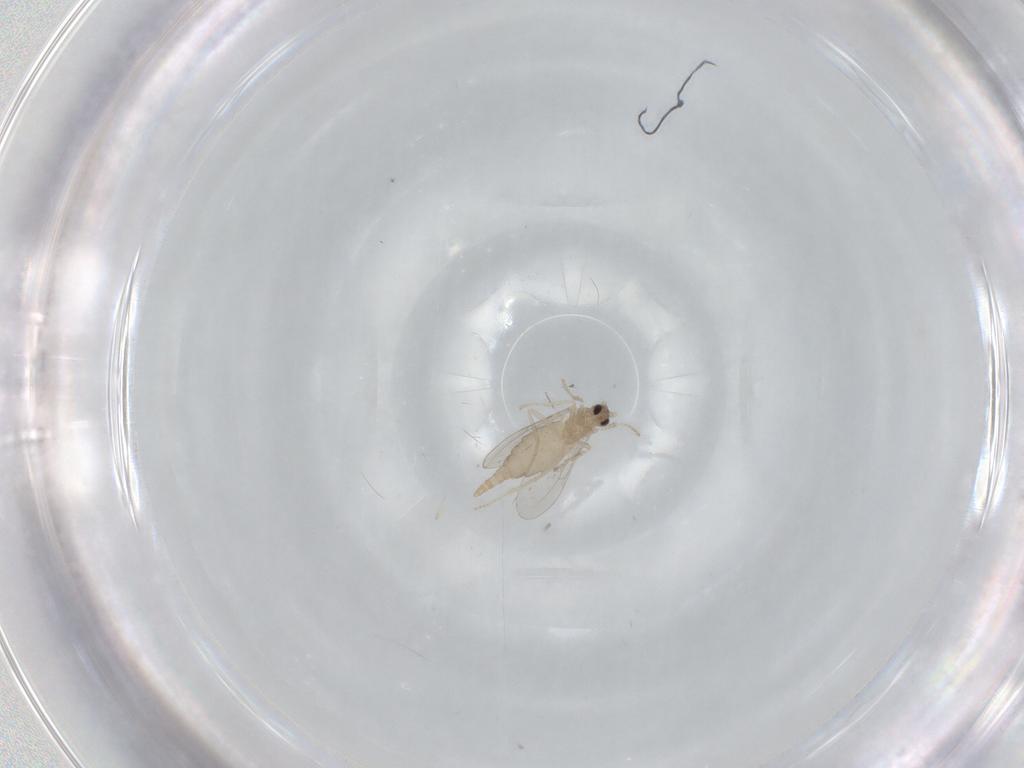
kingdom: Animalia
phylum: Arthropoda
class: Insecta
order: Diptera
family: Cecidomyiidae
